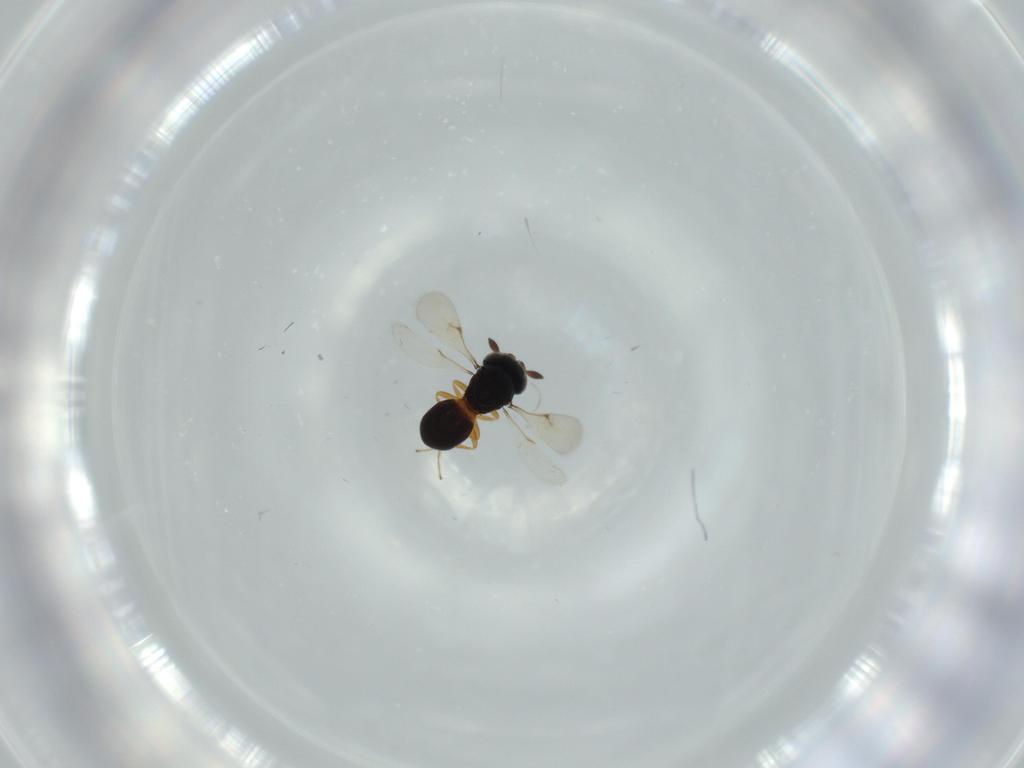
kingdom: Animalia
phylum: Arthropoda
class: Insecta
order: Hymenoptera
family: Scelionidae
